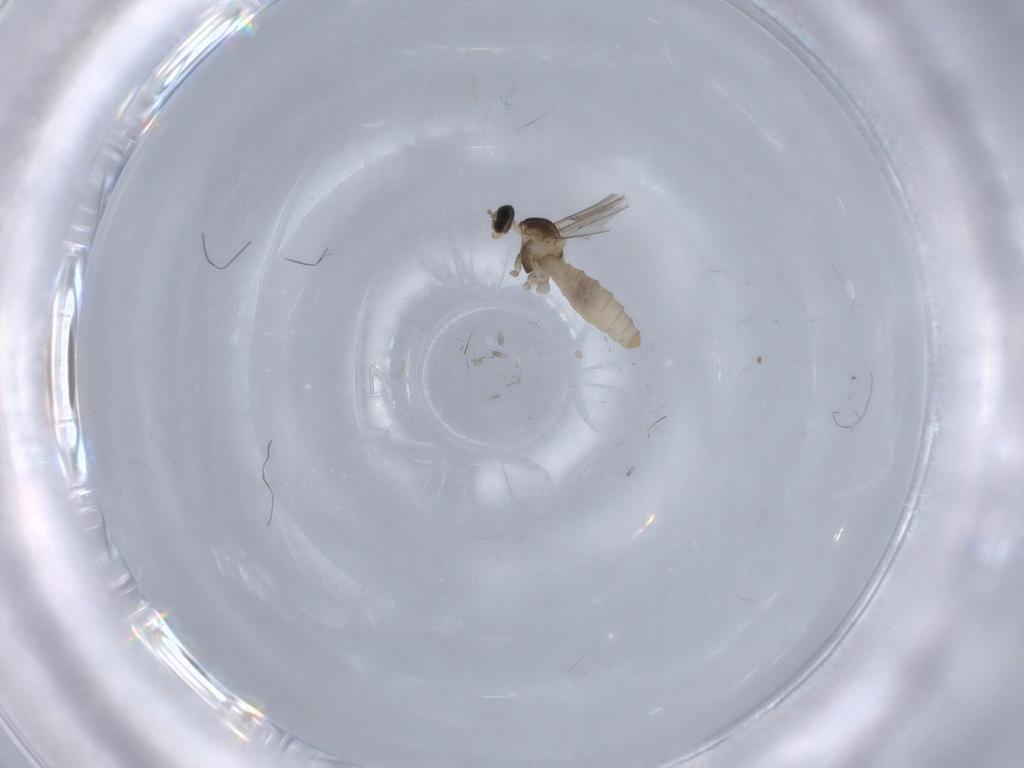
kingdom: Animalia
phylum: Arthropoda
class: Insecta
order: Diptera
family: Cecidomyiidae
